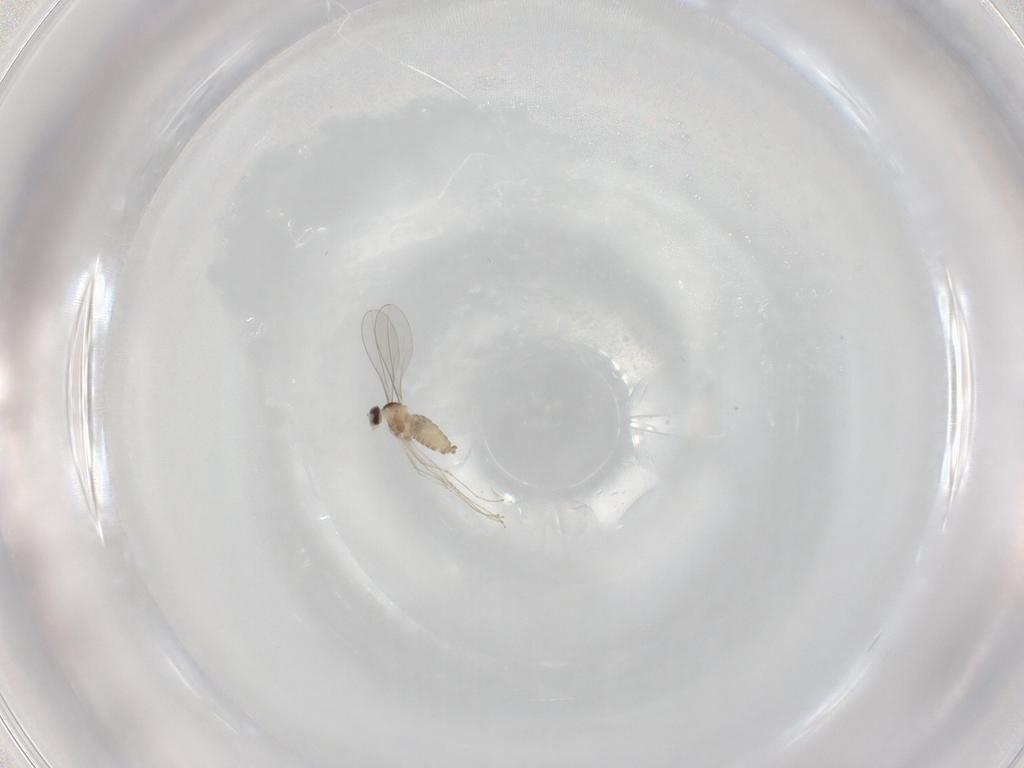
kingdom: Animalia
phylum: Arthropoda
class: Insecta
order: Diptera
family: Cecidomyiidae
